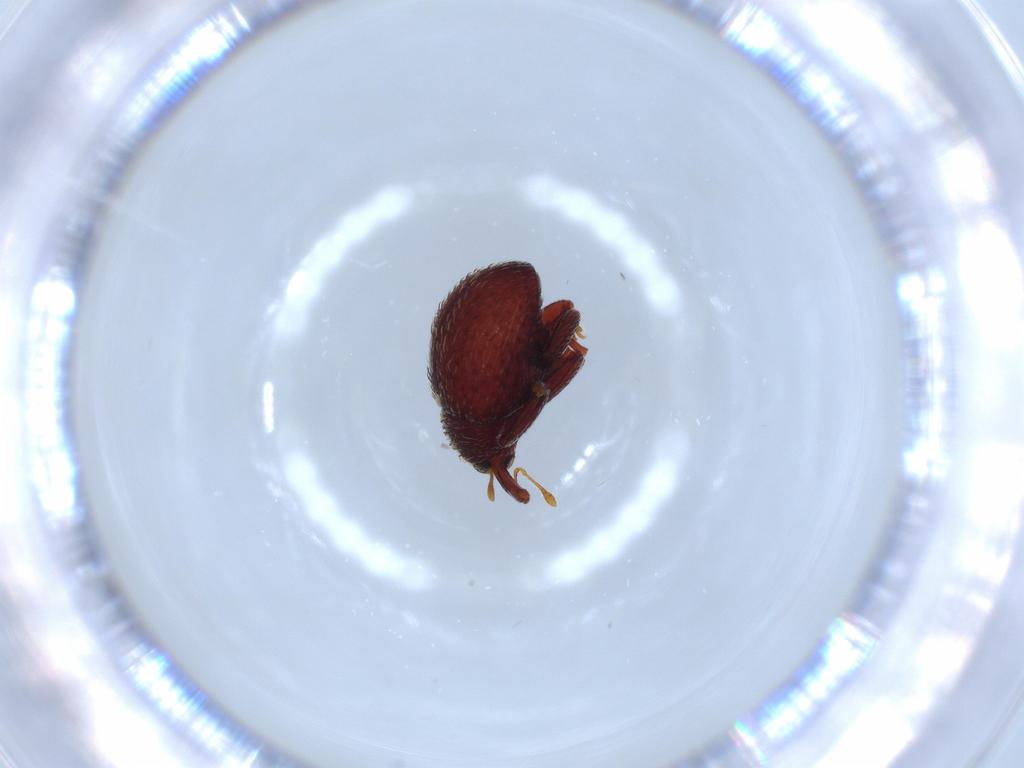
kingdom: Animalia
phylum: Arthropoda
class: Insecta
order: Coleoptera
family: Curculionidae
